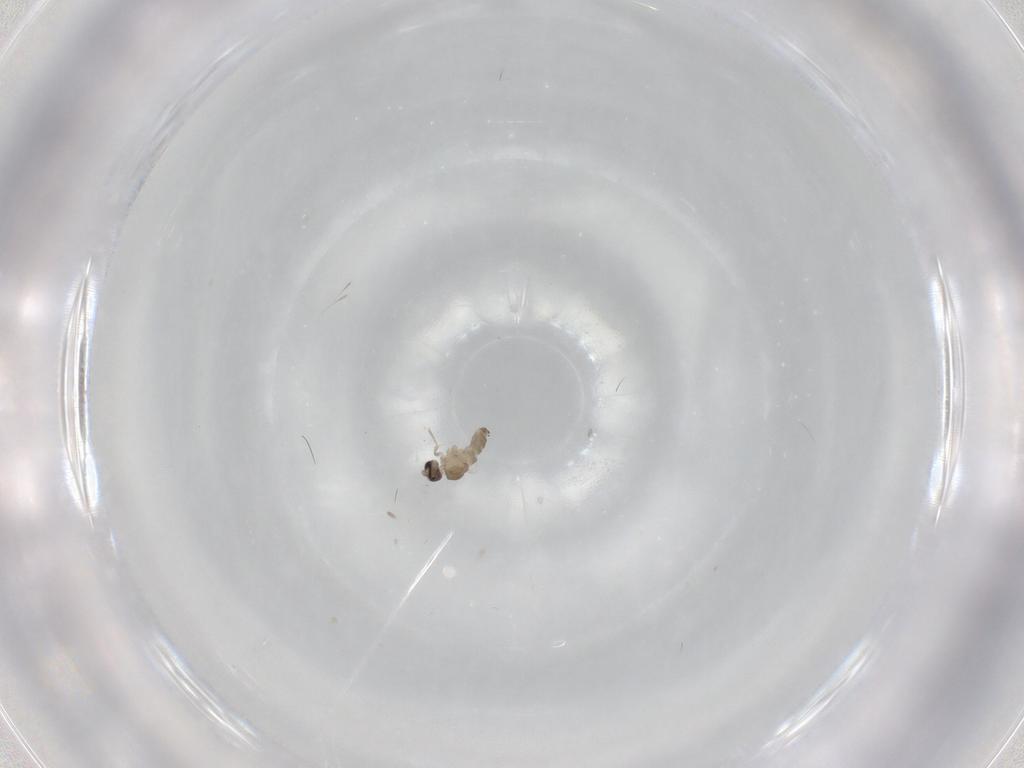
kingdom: Animalia
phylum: Arthropoda
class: Insecta
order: Diptera
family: Cecidomyiidae
